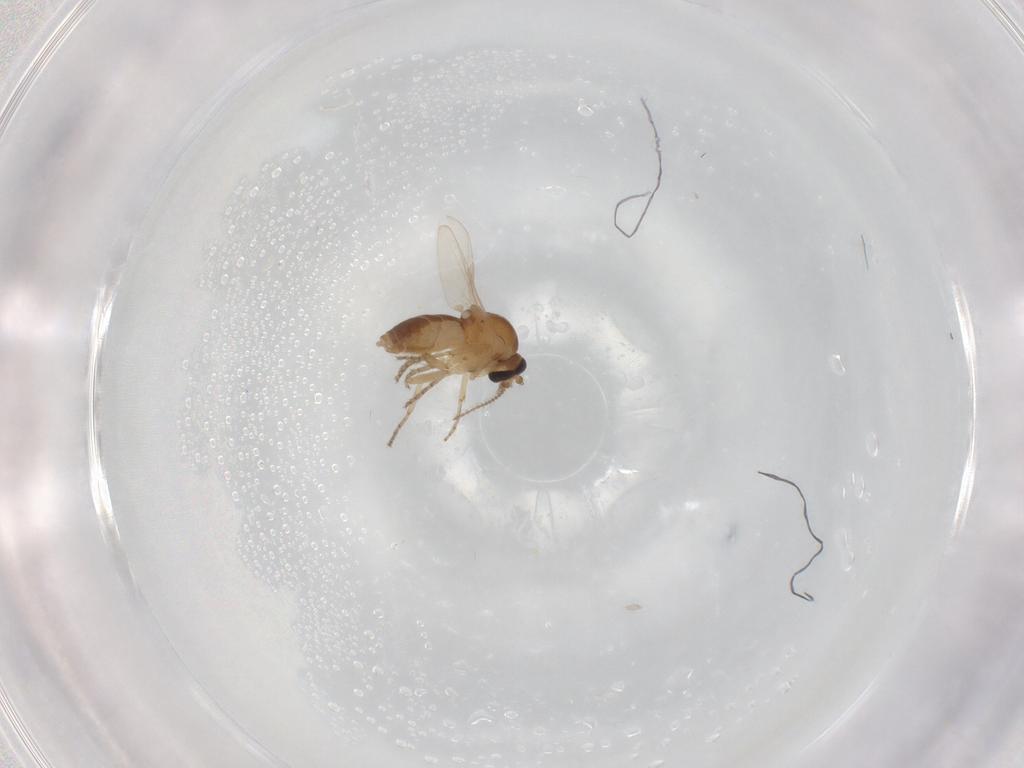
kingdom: Animalia
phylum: Arthropoda
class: Insecta
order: Diptera
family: Ceratopogonidae
